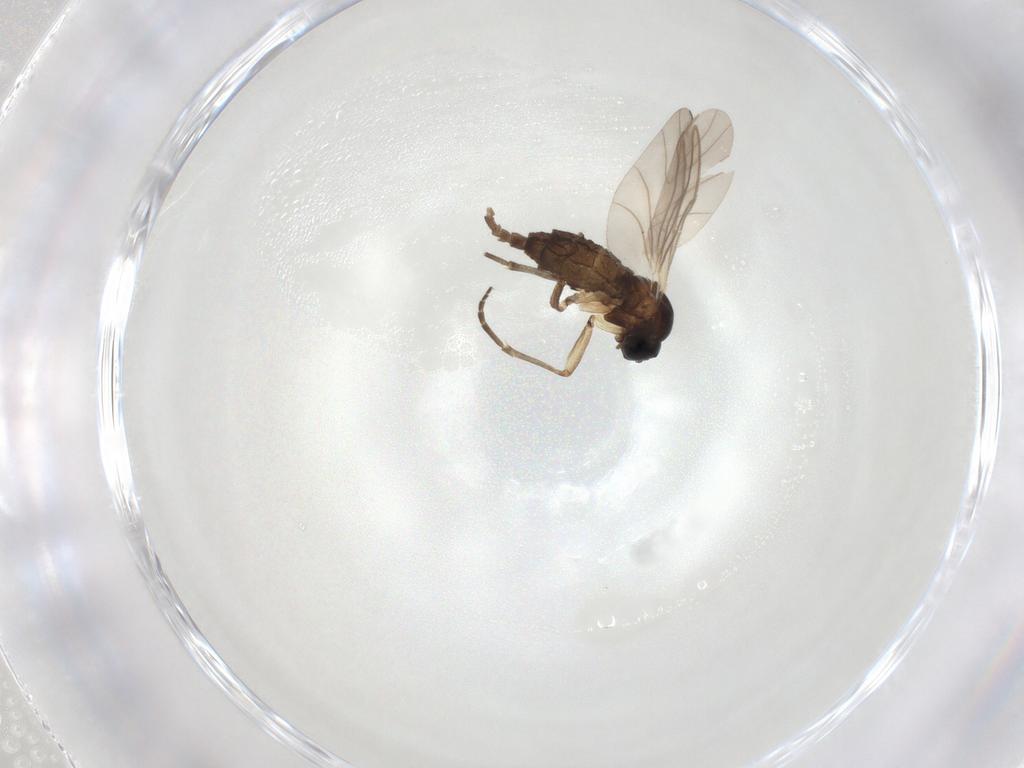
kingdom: Animalia
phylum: Arthropoda
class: Insecta
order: Diptera
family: Sciaridae
